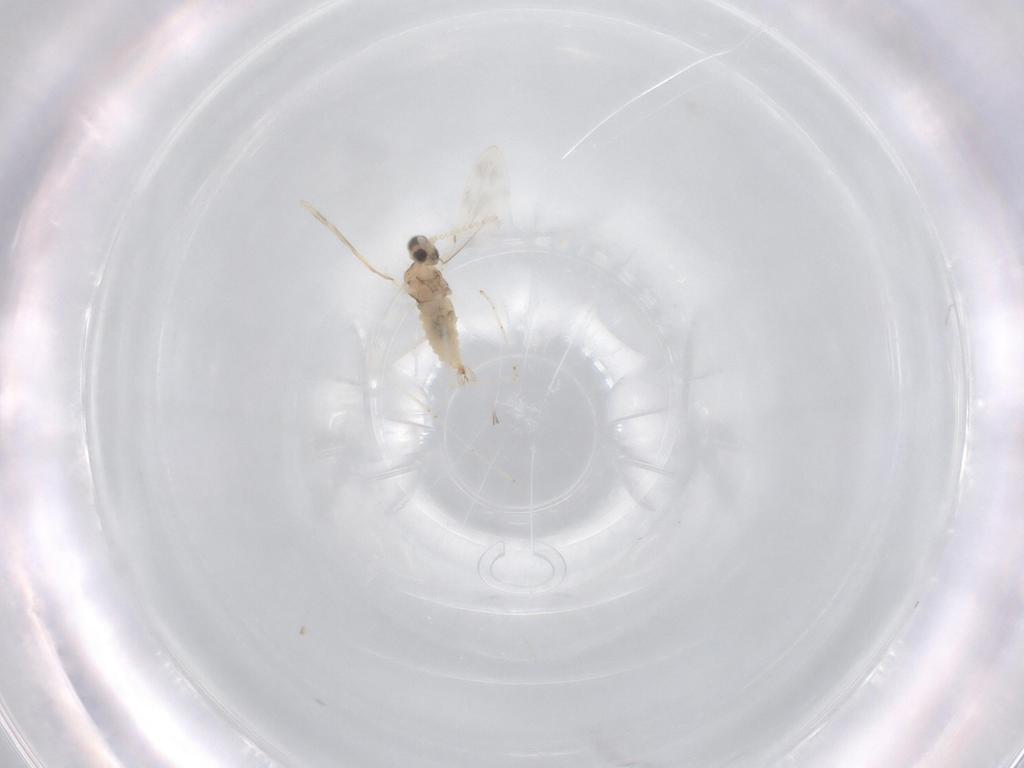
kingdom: Animalia
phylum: Arthropoda
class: Insecta
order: Diptera
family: Cecidomyiidae
